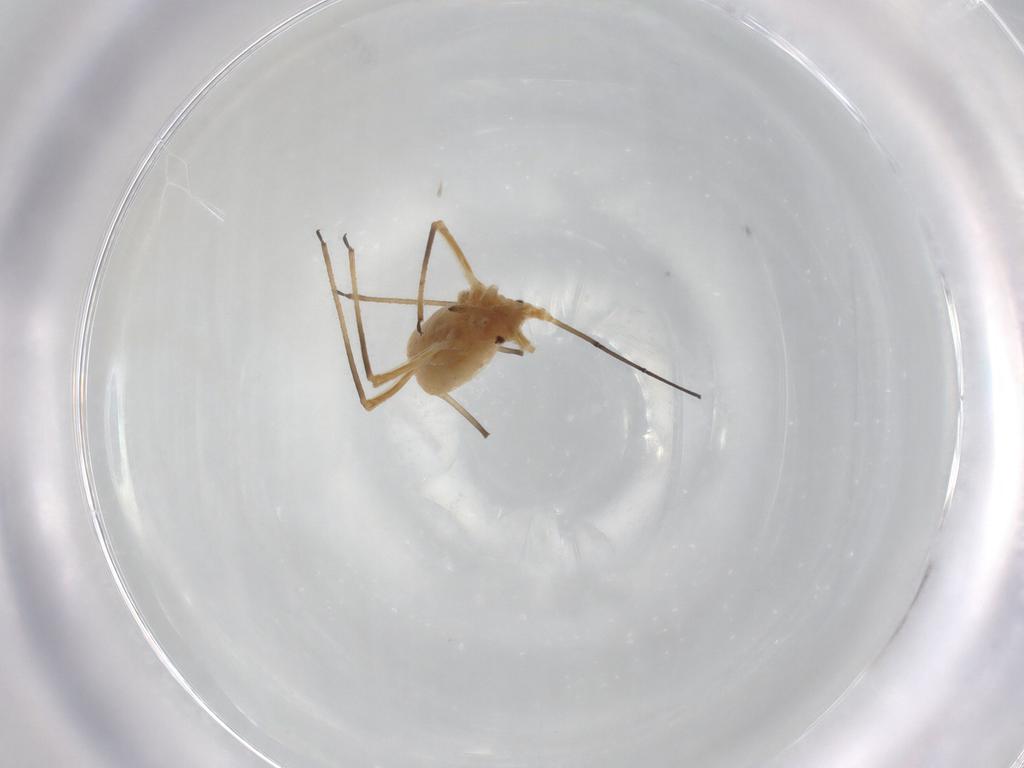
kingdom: Animalia
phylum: Arthropoda
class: Insecta
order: Hemiptera
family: Aphididae
